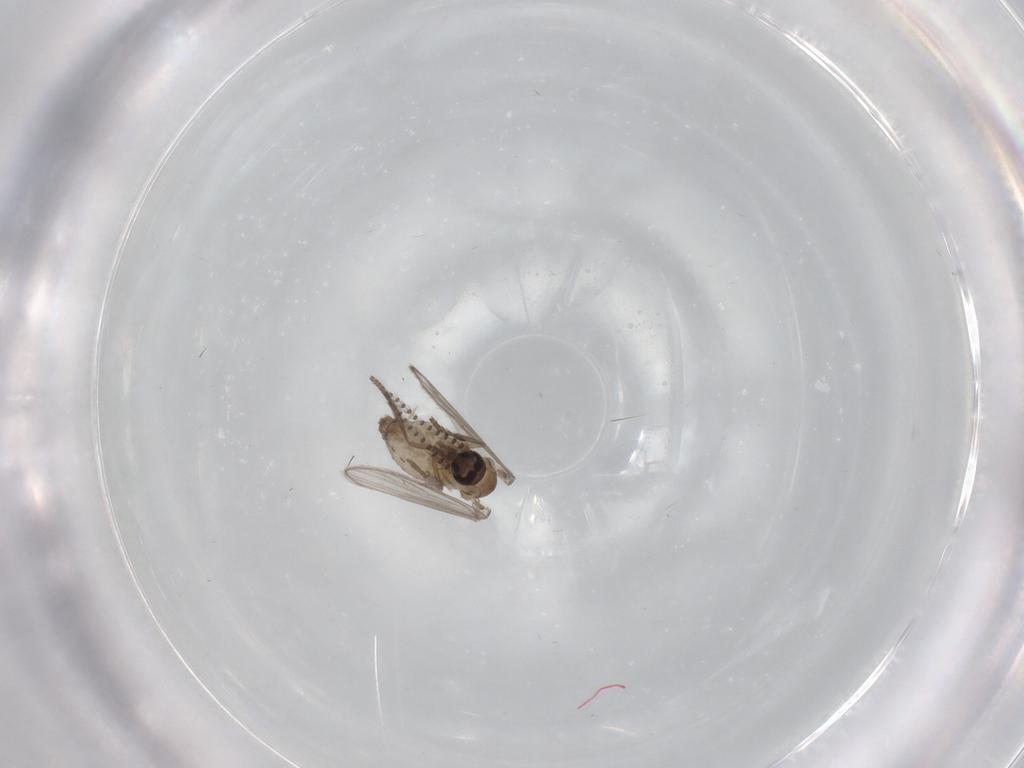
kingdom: Animalia
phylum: Arthropoda
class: Insecta
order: Diptera
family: Psychodidae
